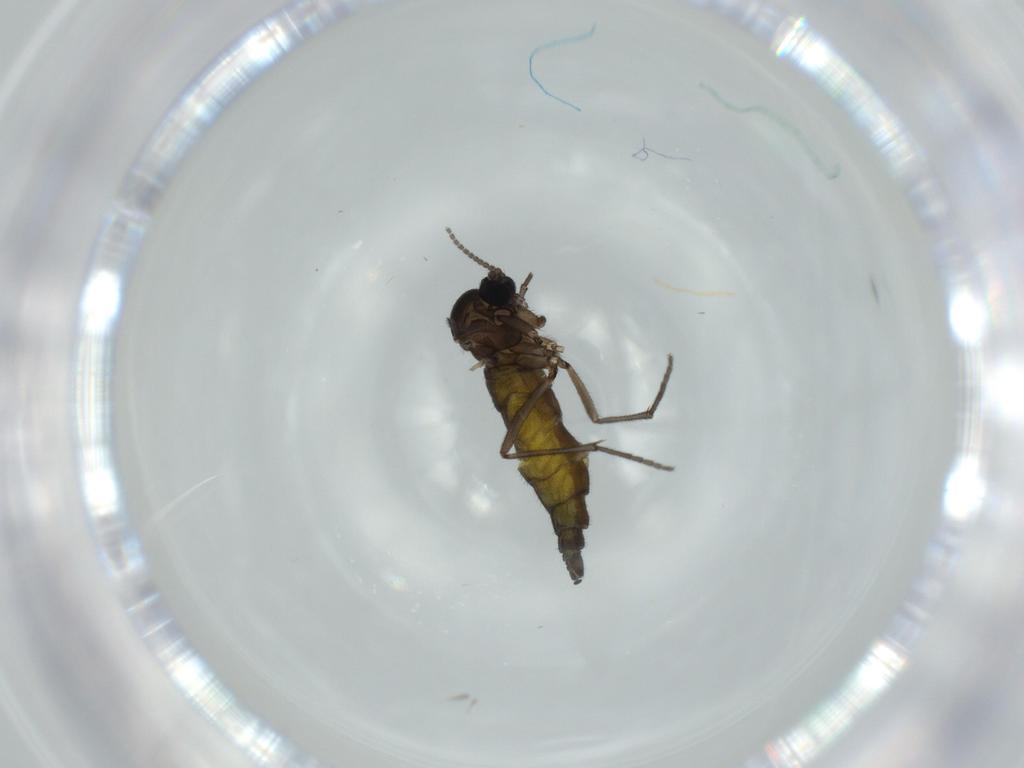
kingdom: Animalia
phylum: Arthropoda
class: Insecta
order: Diptera
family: Sciaridae
